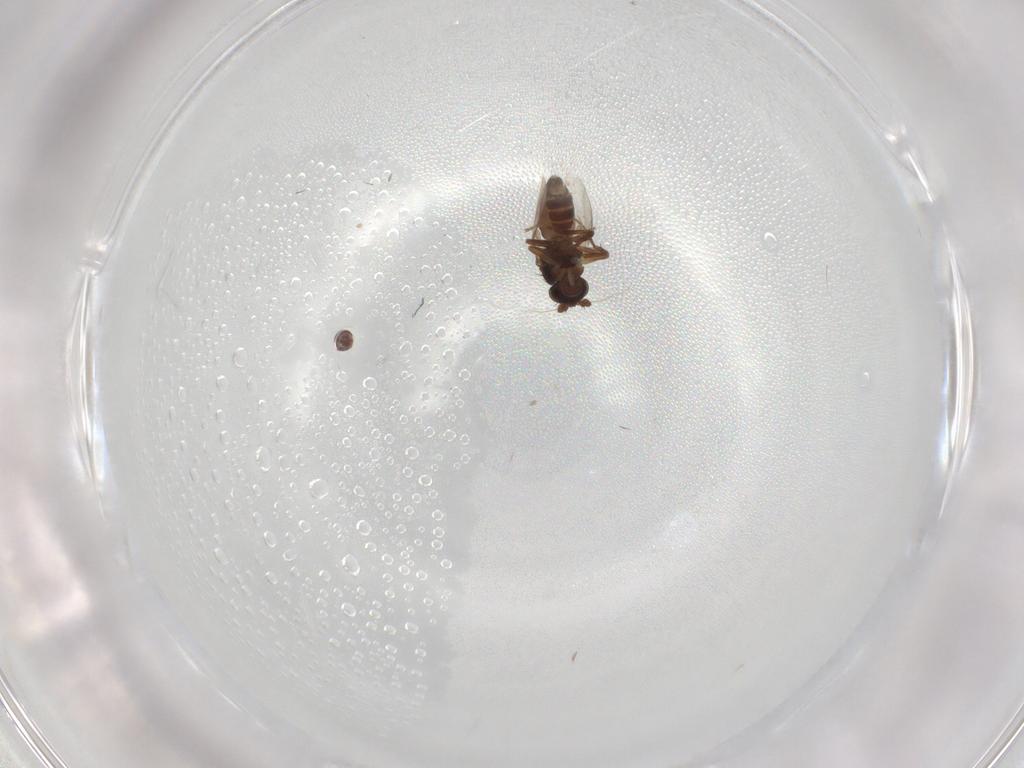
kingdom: Animalia
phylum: Arthropoda
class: Insecta
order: Diptera
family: Sphaeroceridae
